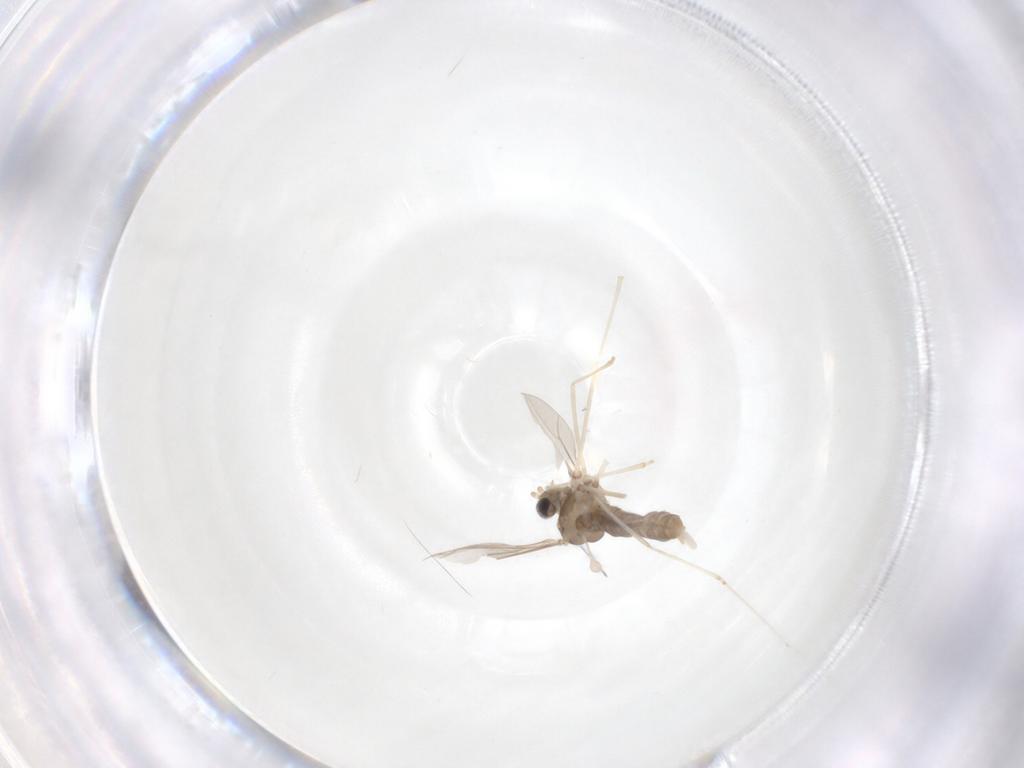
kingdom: Animalia
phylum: Arthropoda
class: Insecta
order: Diptera
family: Cecidomyiidae
